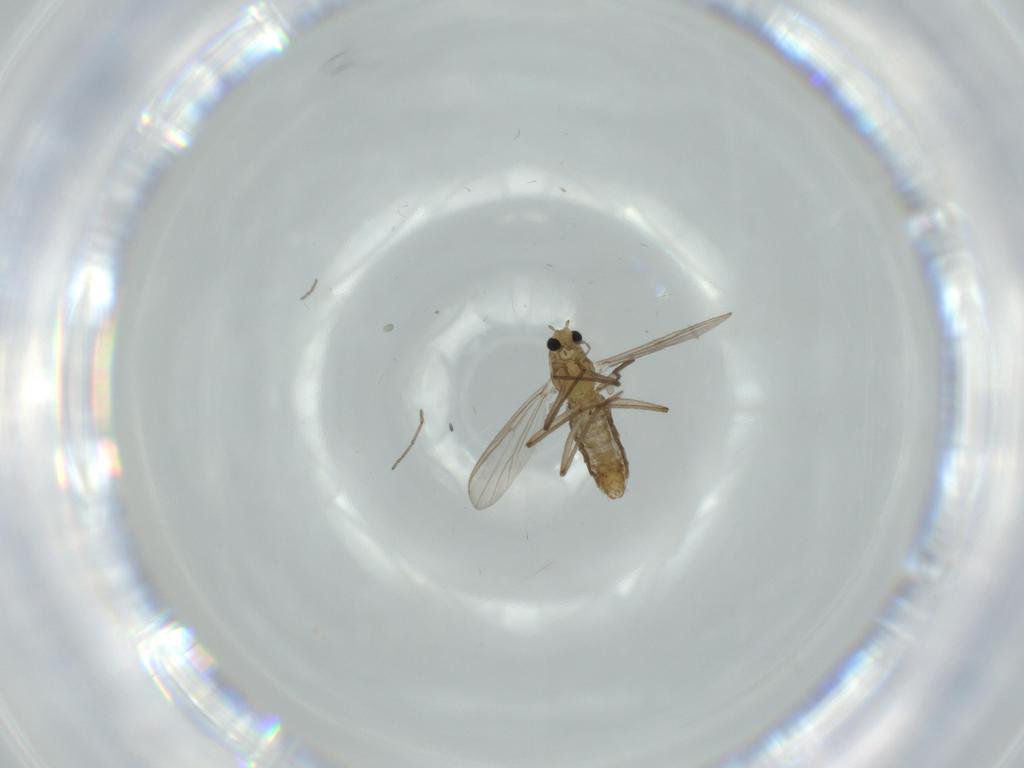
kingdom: Animalia
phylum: Arthropoda
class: Insecta
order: Diptera
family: Chironomidae
